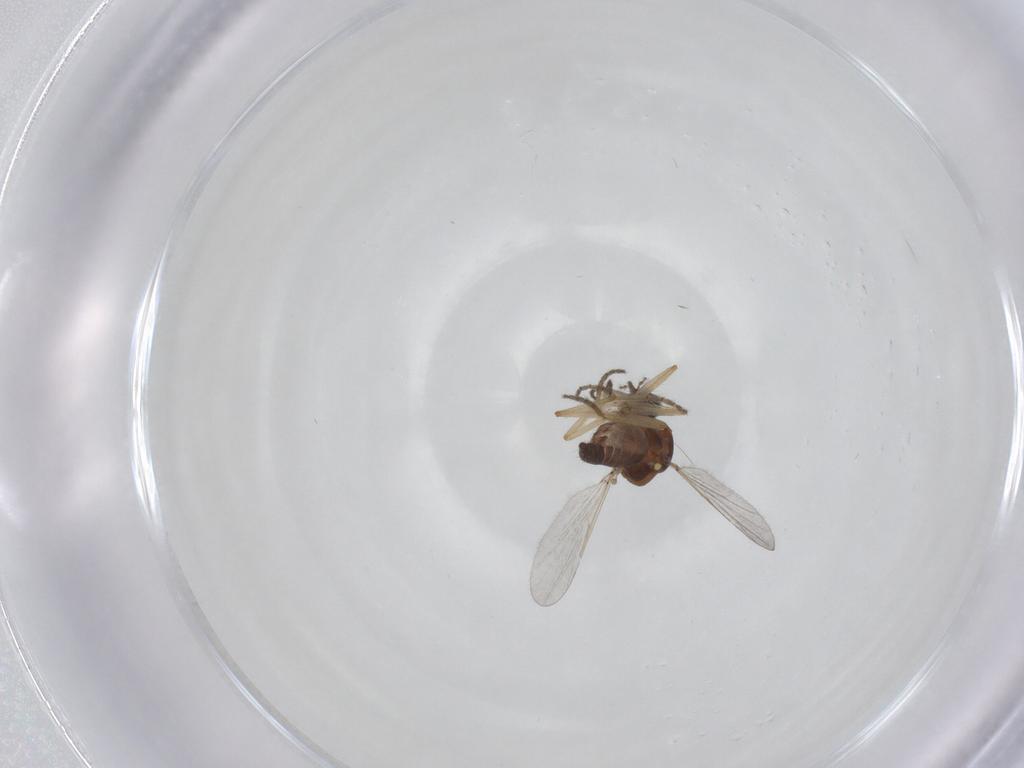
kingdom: Animalia
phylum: Arthropoda
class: Insecta
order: Diptera
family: Ceratopogonidae
